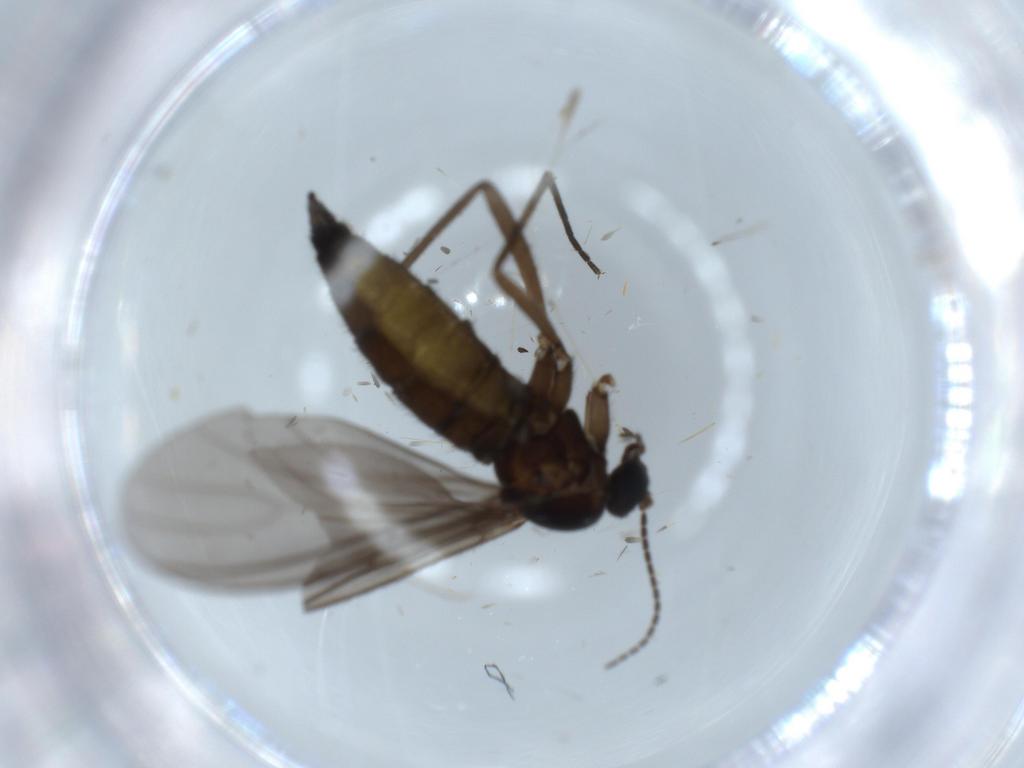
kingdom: Animalia
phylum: Arthropoda
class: Insecta
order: Diptera
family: Sciaridae
